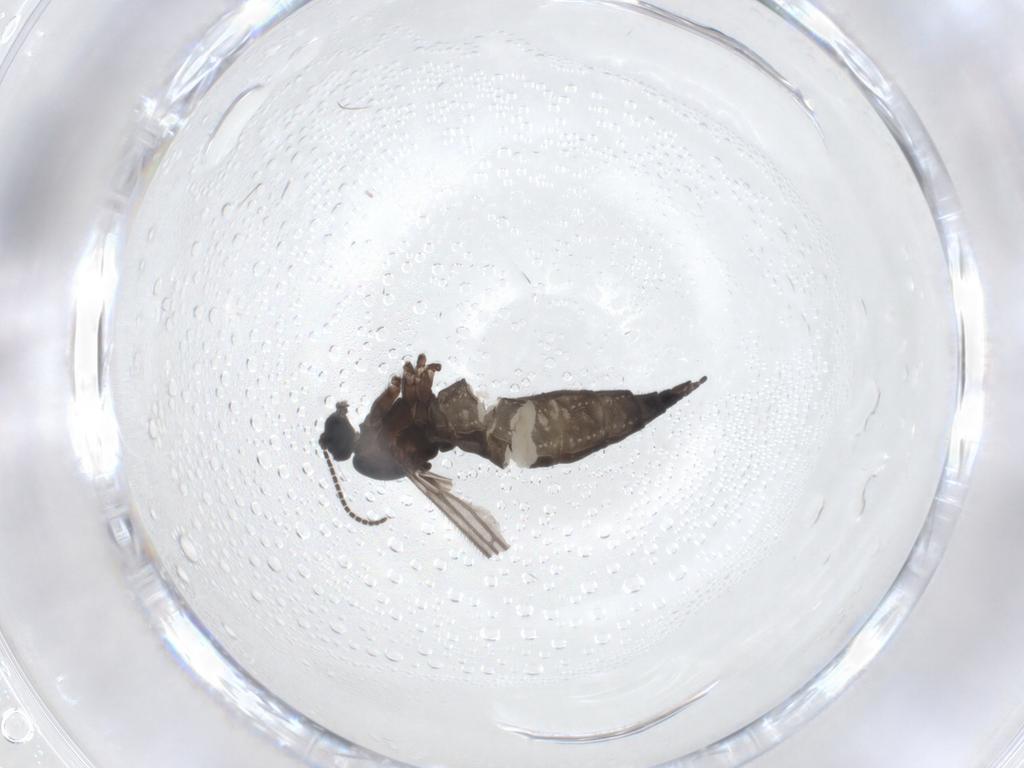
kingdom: Animalia
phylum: Arthropoda
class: Insecta
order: Diptera
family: Sciaridae
